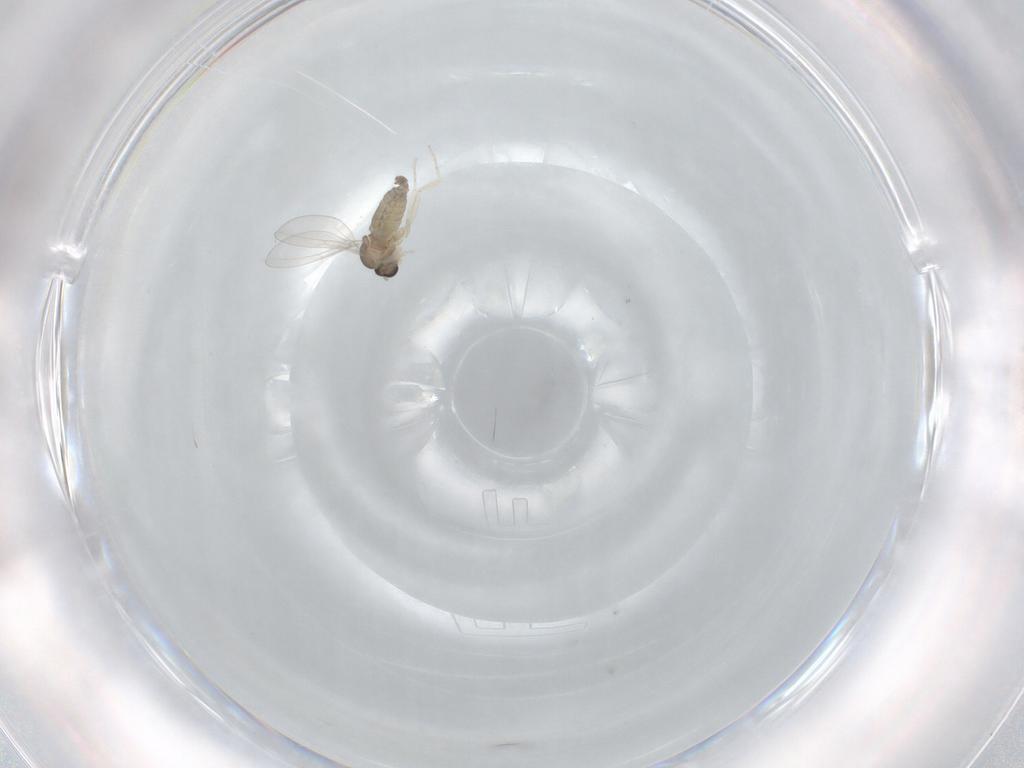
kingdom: Animalia
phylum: Arthropoda
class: Insecta
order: Diptera
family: Cecidomyiidae
